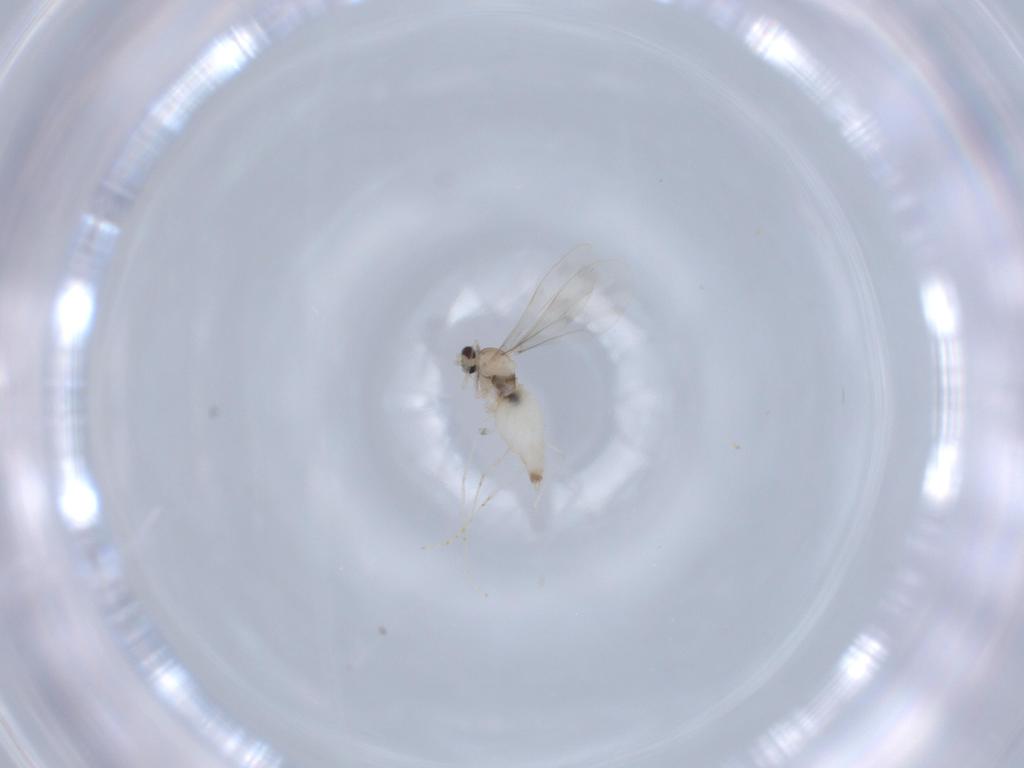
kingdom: Animalia
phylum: Arthropoda
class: Insecta
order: Diptera
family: Cecidomyiidae
